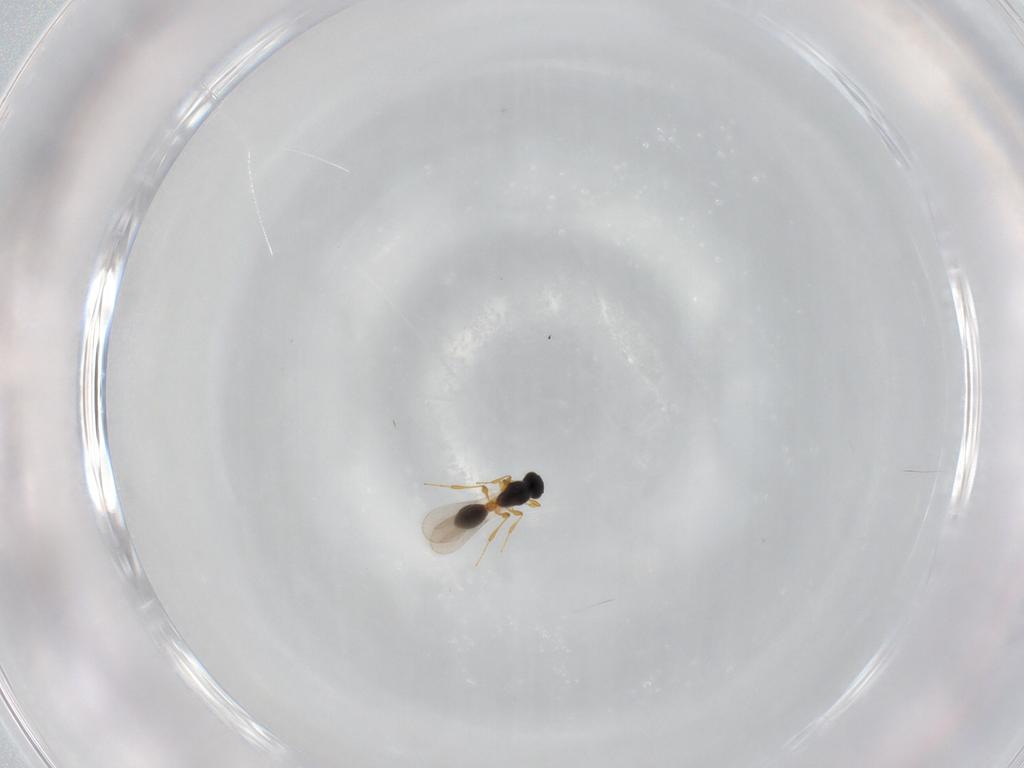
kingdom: Animalia
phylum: Arthropoda
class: Insecta
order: Hymenoptera
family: Platygastridae
